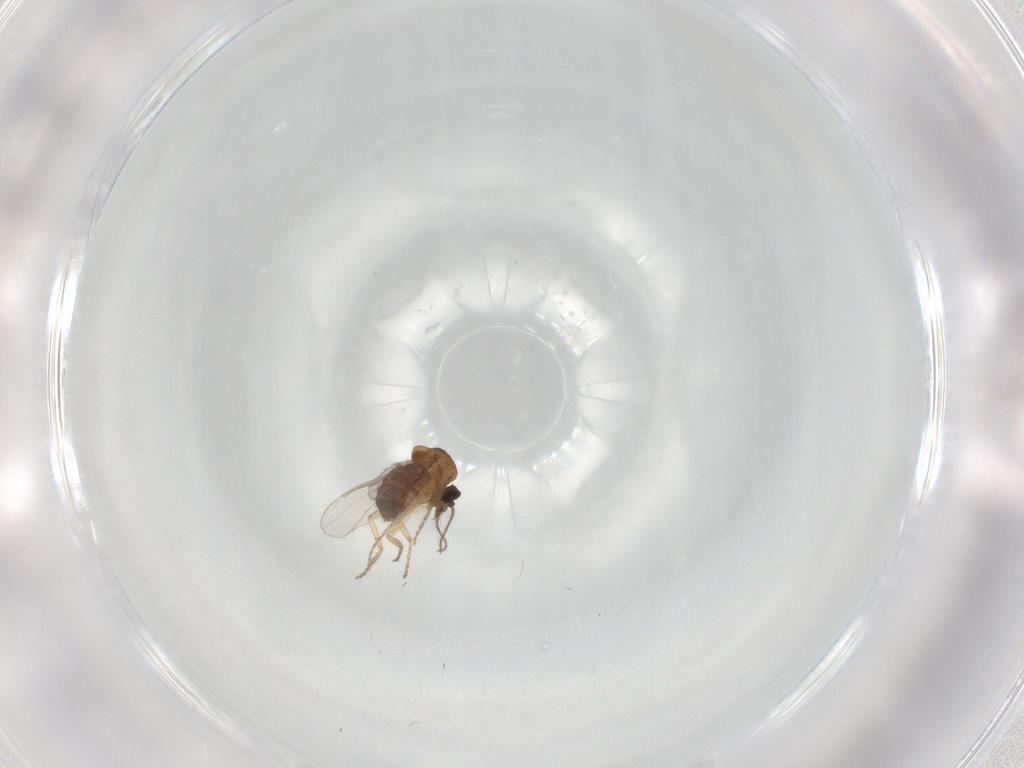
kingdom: Animalia
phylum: Arthropoda
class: Insecta
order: Diptera
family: Ceratopogonidae
